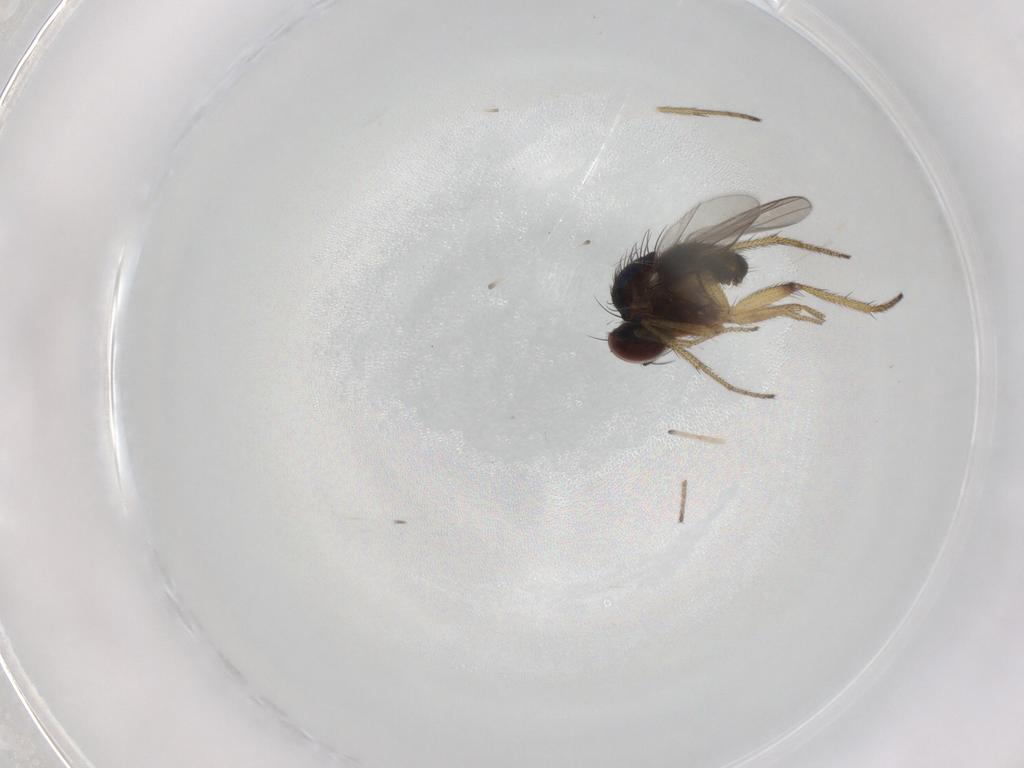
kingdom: Animalia
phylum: Arthropoda
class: Insecta
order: Diptera
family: Dolichopodidae
